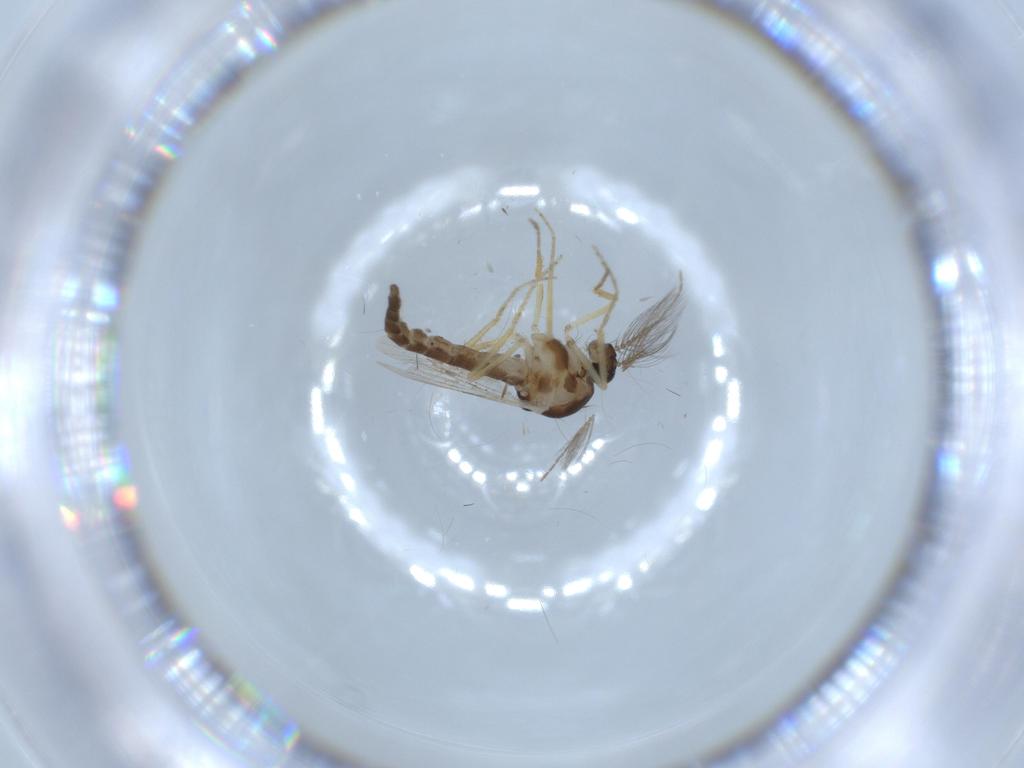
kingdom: Animalia
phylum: Arthropoda
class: Insecta
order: Diptera
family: Ceratopogonidae
